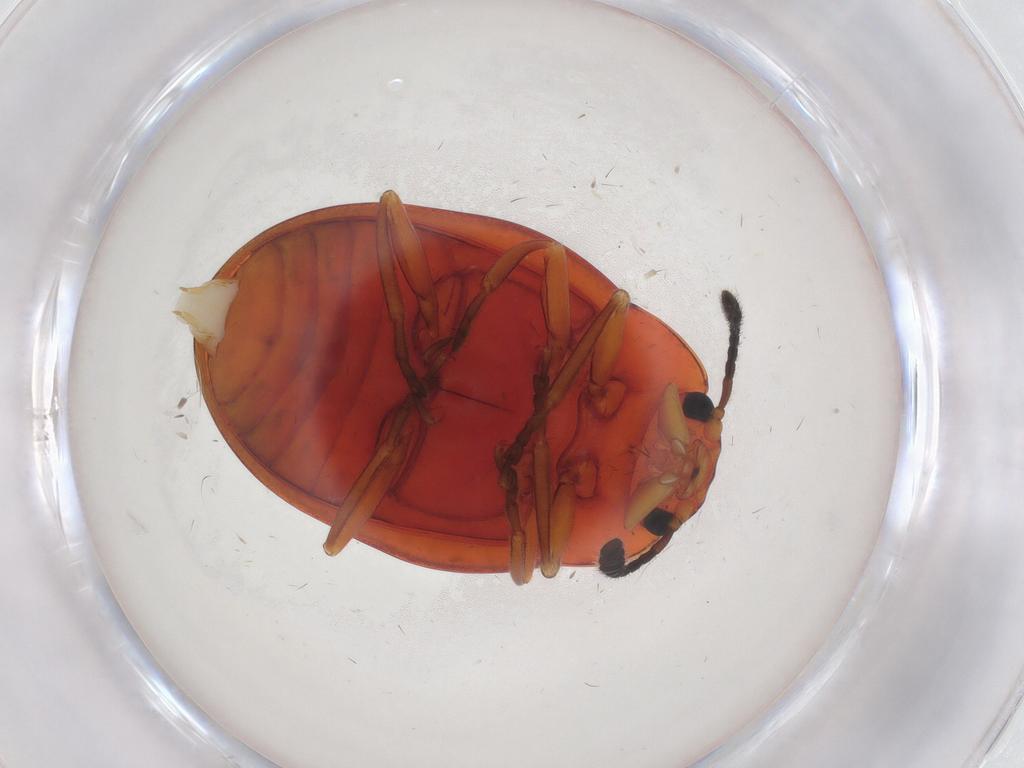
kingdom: Animalia
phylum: Arthropoda
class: Insecta
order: Coleoptera
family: Erotylidae
